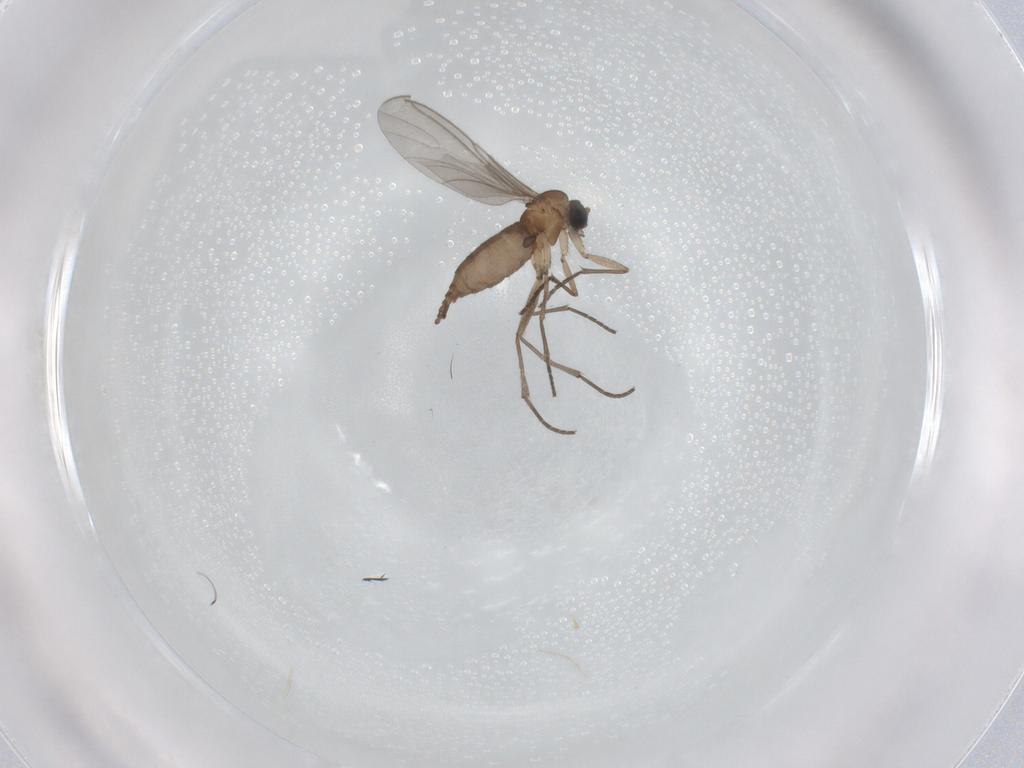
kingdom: Animalia
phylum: Arthropoda
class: Insecta
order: Diptera
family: Sciaridae
